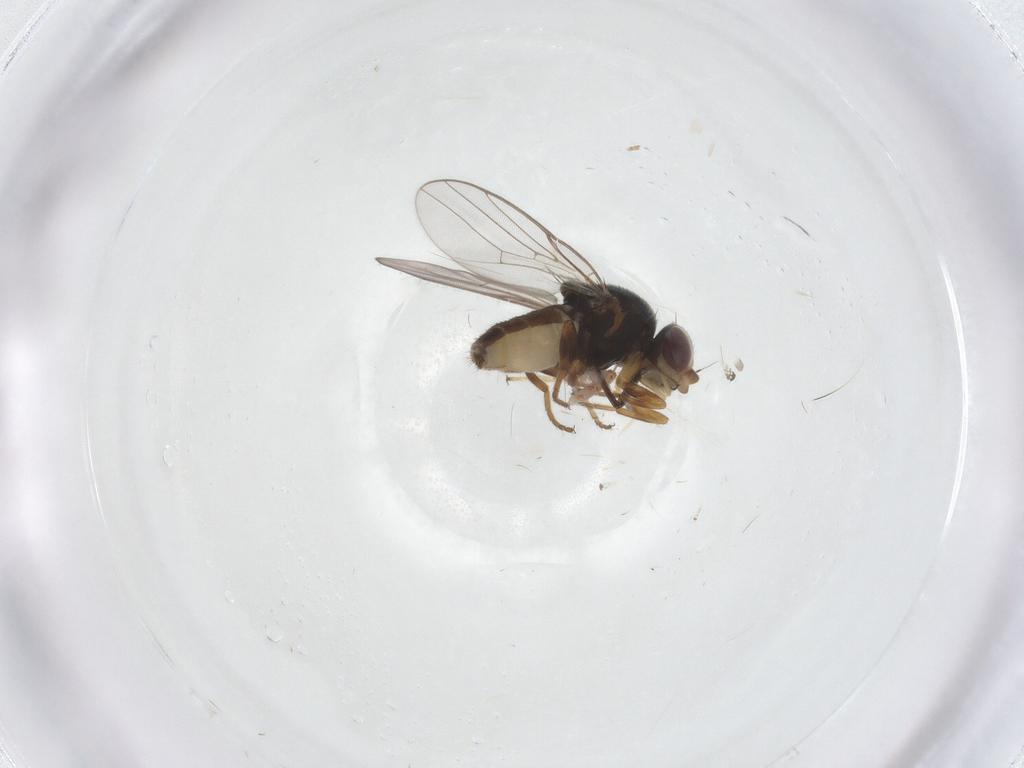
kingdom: Animalia
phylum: Arthropoda
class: Insecta
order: Diptera
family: Chloropidae
